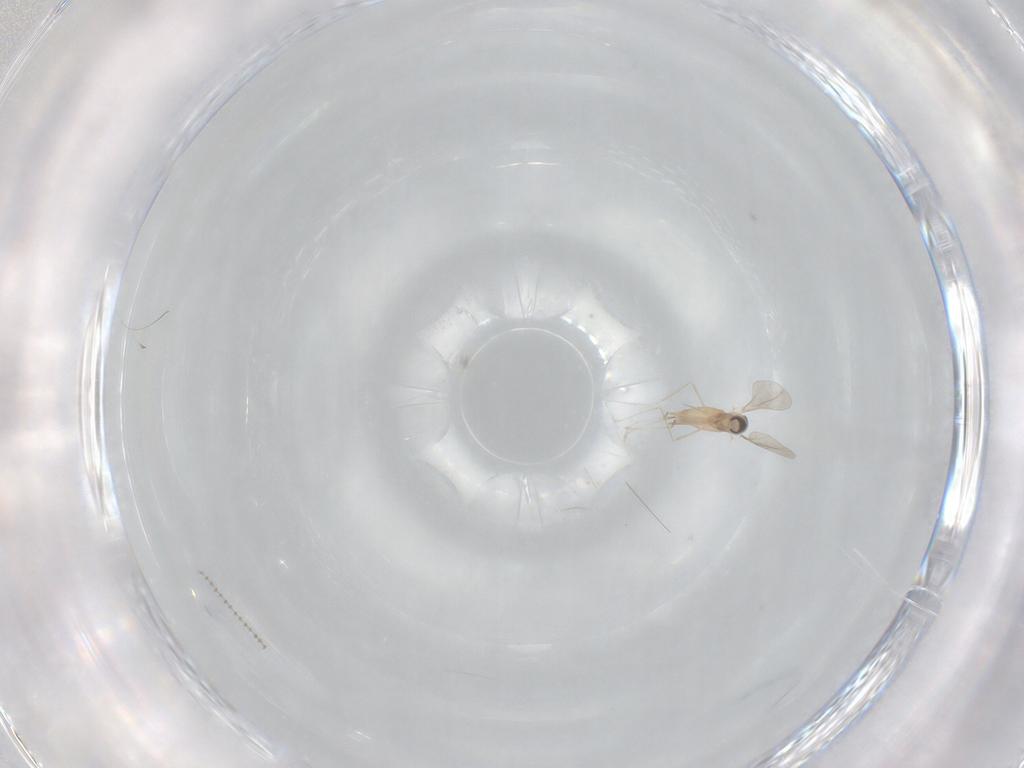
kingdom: Animalia
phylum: Arthropoda
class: Insecta
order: Diptera
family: Cecidomyiidae
